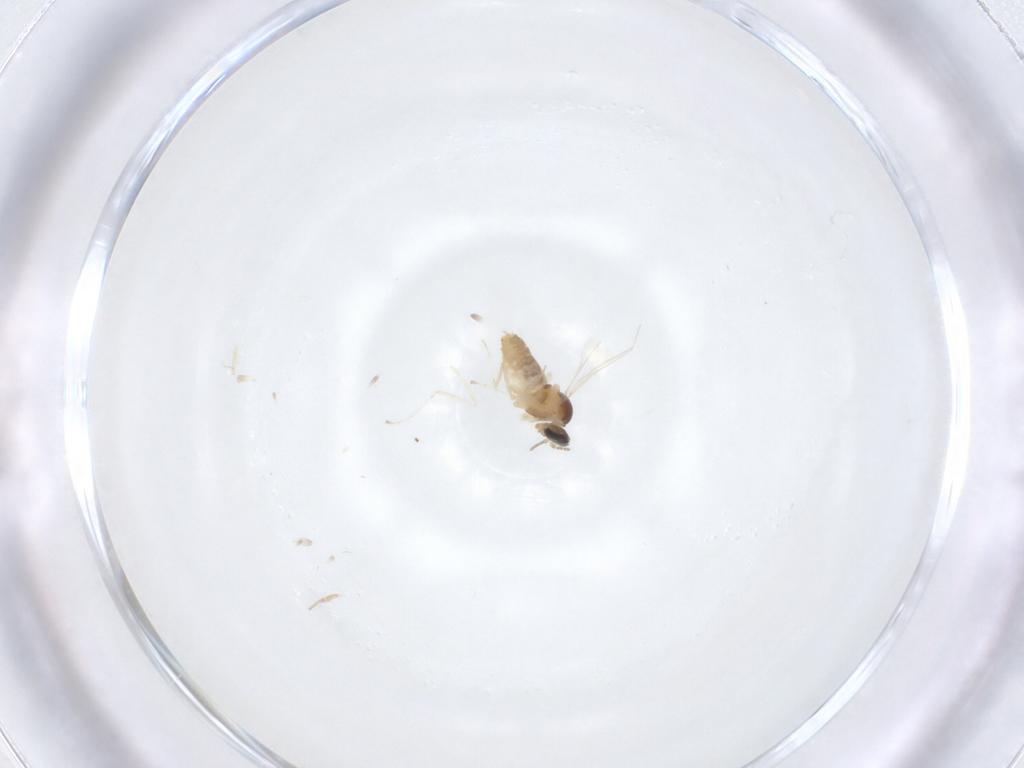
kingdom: Animalia
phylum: Arthropoda
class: Insecta
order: Diptera
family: Cecidomyiidae
